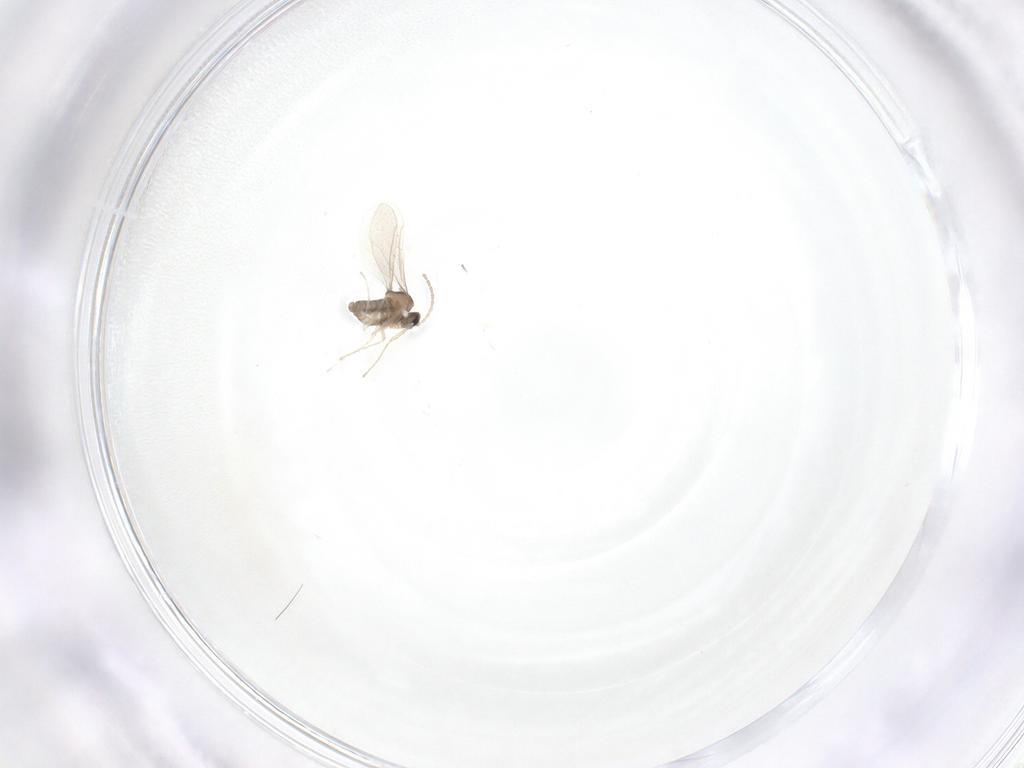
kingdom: Animalia
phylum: Arthropoda
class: Insecta
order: Diptera
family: Cecidomyiidae
